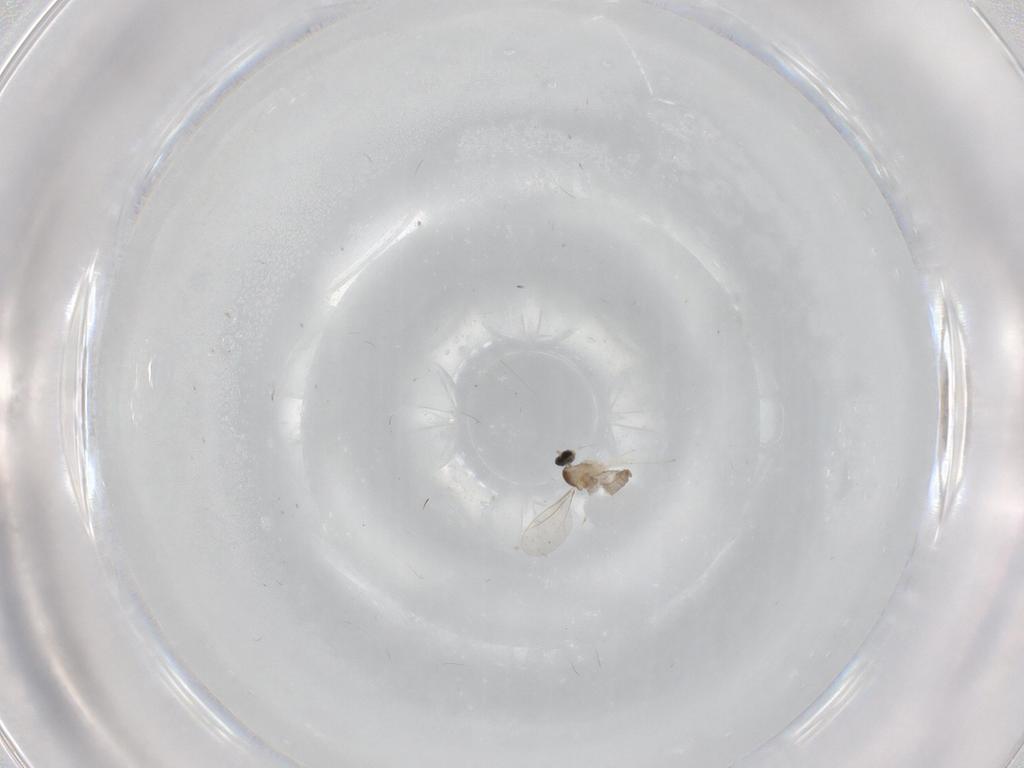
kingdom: Animalia
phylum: Arthropoda
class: Insecta
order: Diptera
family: Cecidomyiidae
